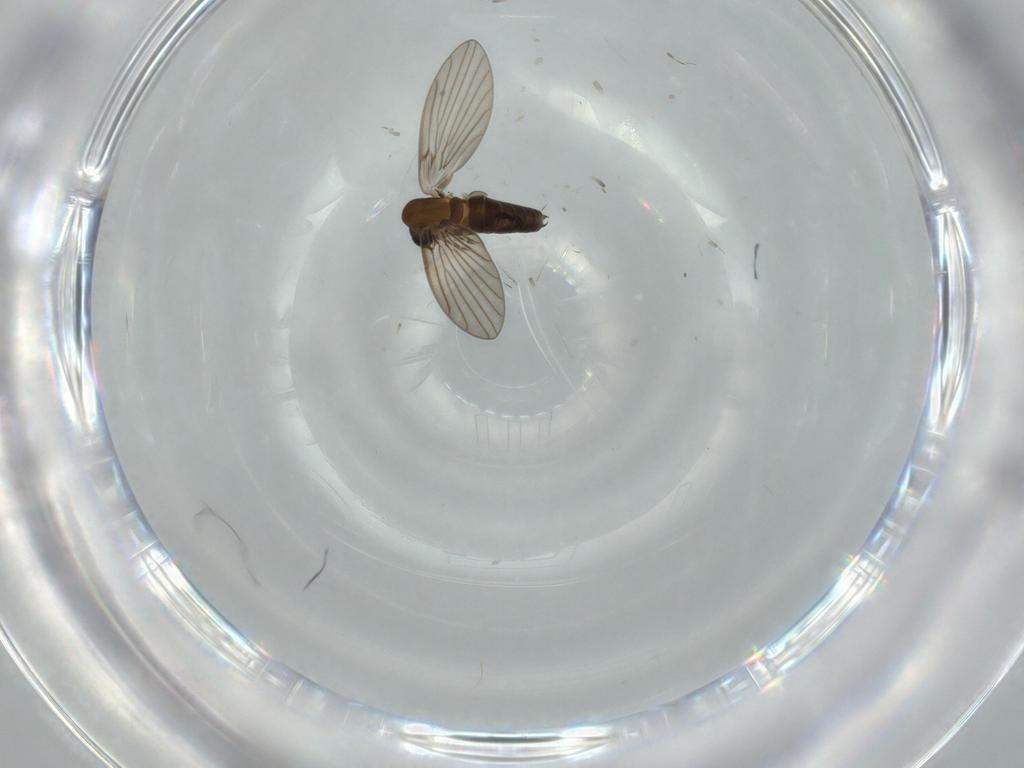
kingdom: Animalia
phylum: Arthropoda
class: Insecta
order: Diptera
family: Psychodidae
